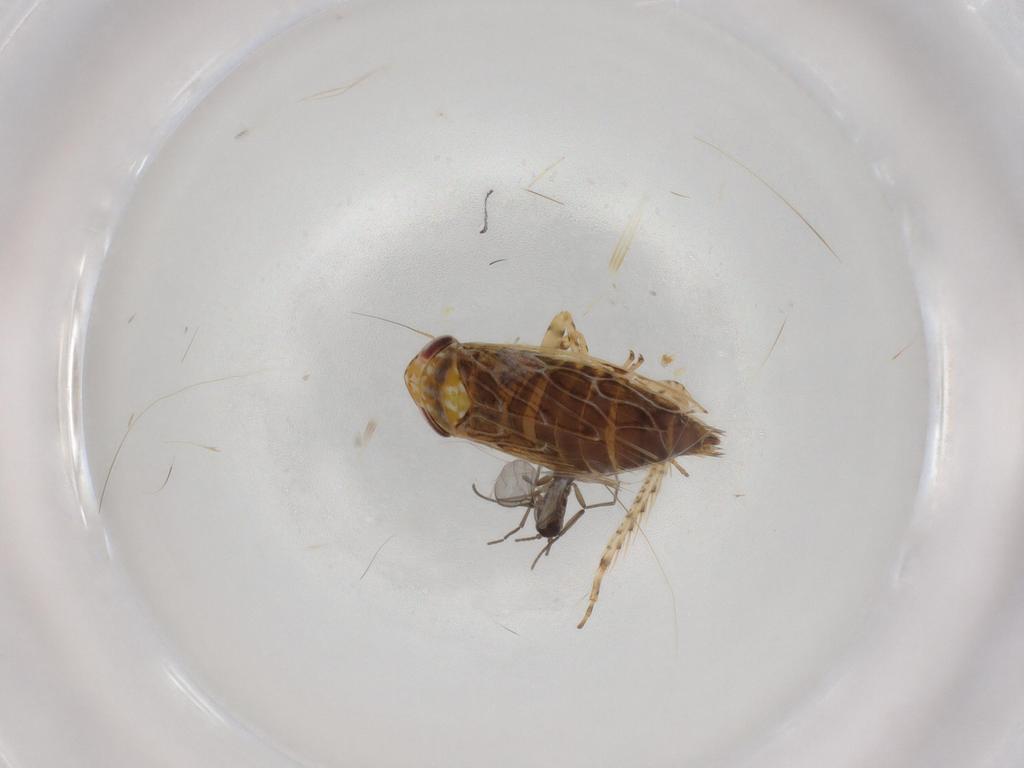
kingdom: Animalia
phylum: Arthropoda
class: Insecta
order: Hemiptera
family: Cicadellidae
